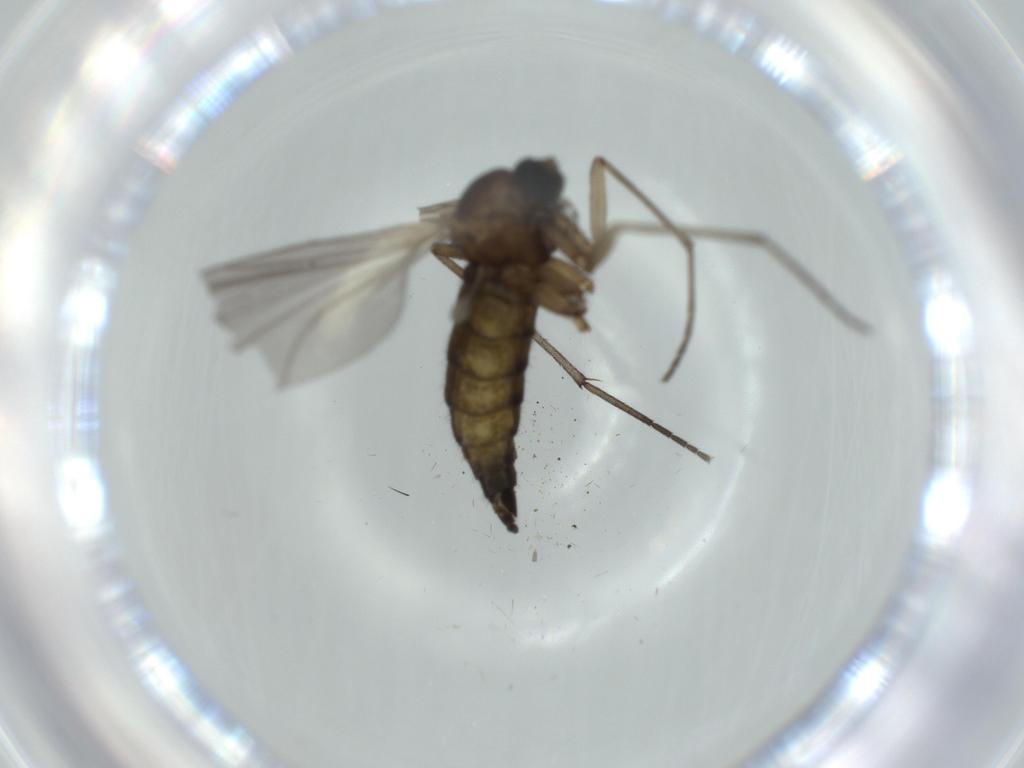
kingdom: Animalia
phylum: Arthropoda
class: Insecta
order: Diptera
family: Sciaridae
